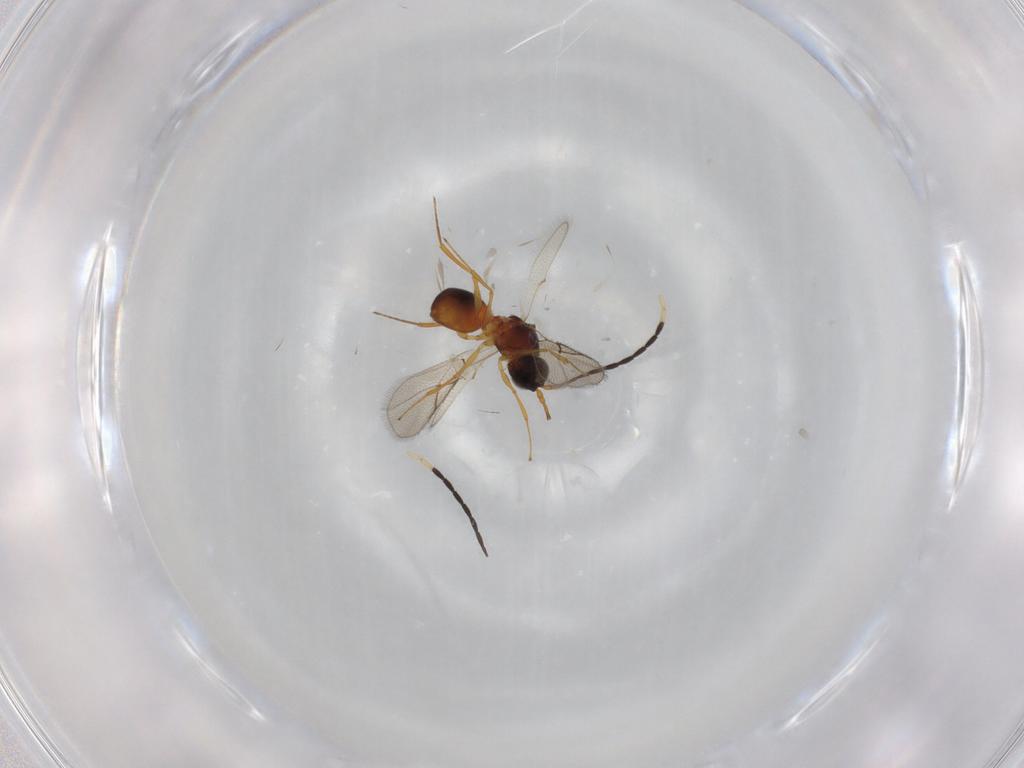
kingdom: Animalia
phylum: Arthropoda
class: Insecta
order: Hymenoptera
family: Figitidae
